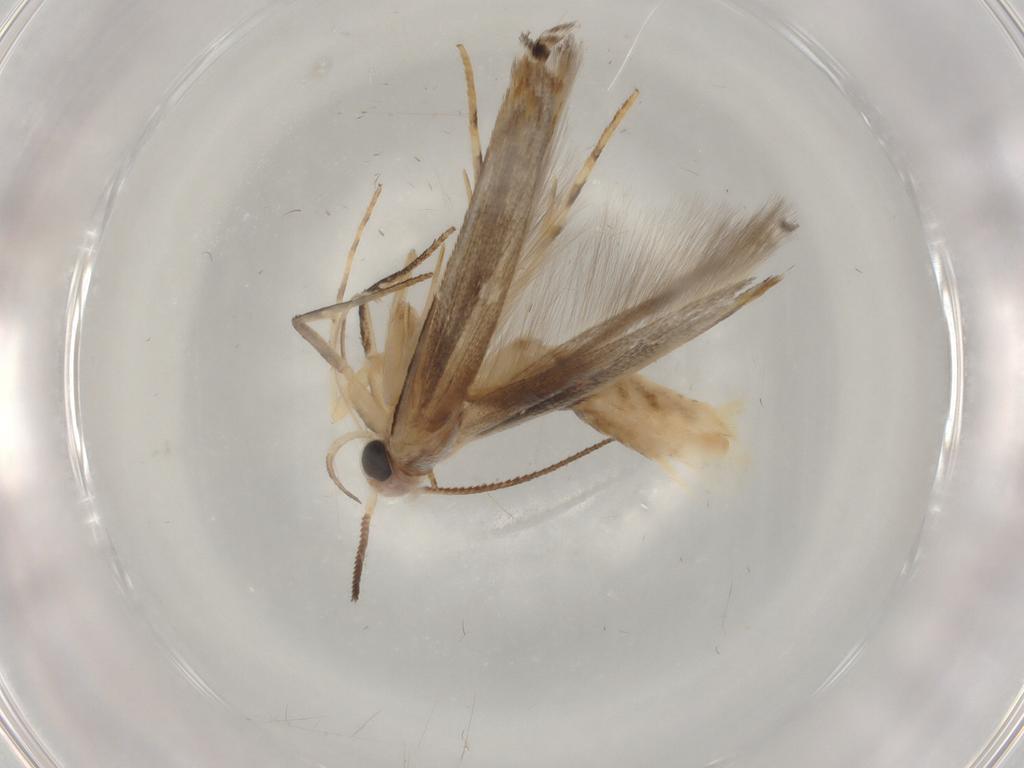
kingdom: Animalia
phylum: Arthropoda
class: Insecta
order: Lepidoptera
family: Gelechiidae
